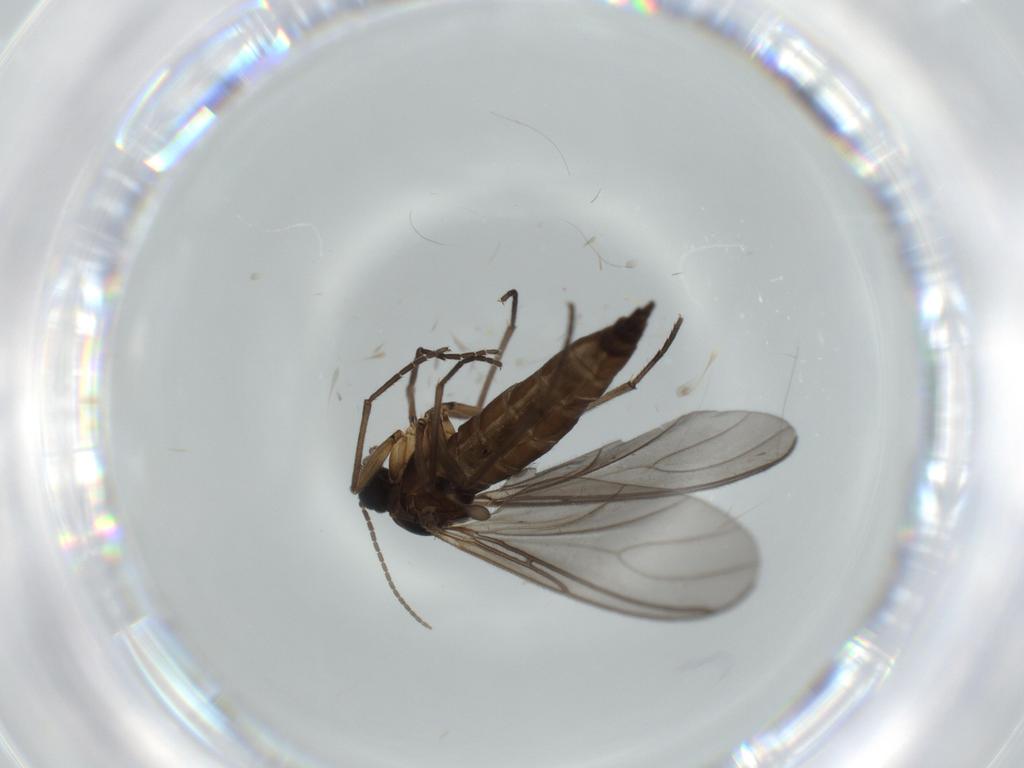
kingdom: Animalia
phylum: Arthropoda
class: Insecta
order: Diptera
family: Sciaridae
